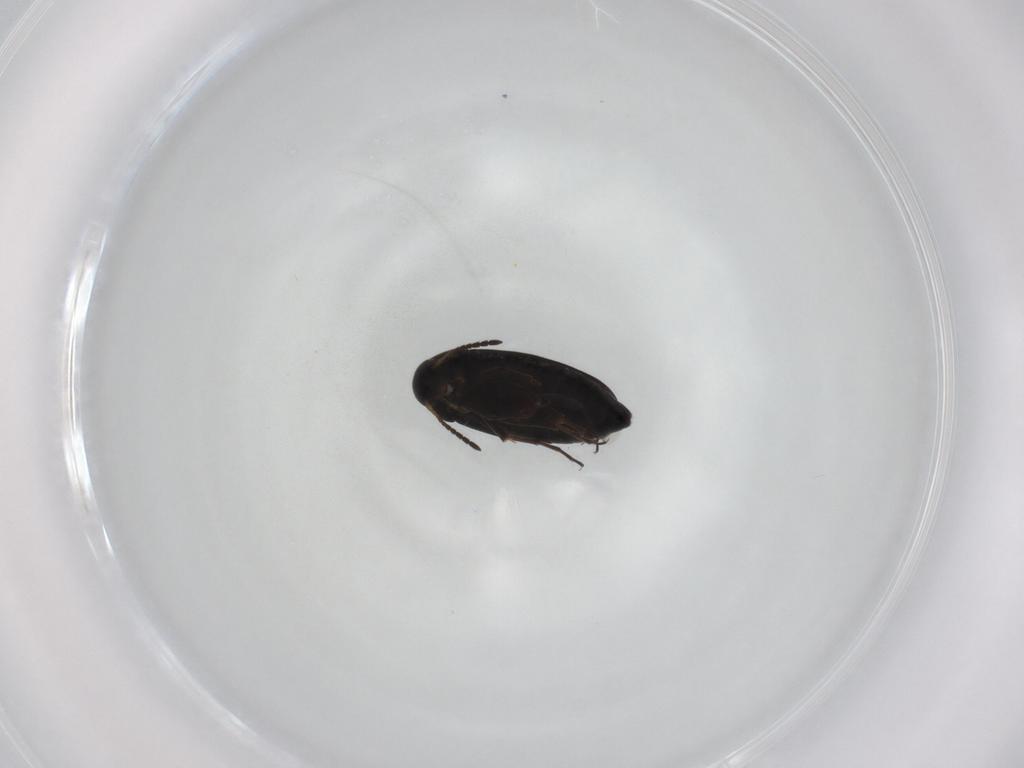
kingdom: Animalia
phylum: Arthropoda
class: Insecta
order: Coleoptera
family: Scraptiidae
